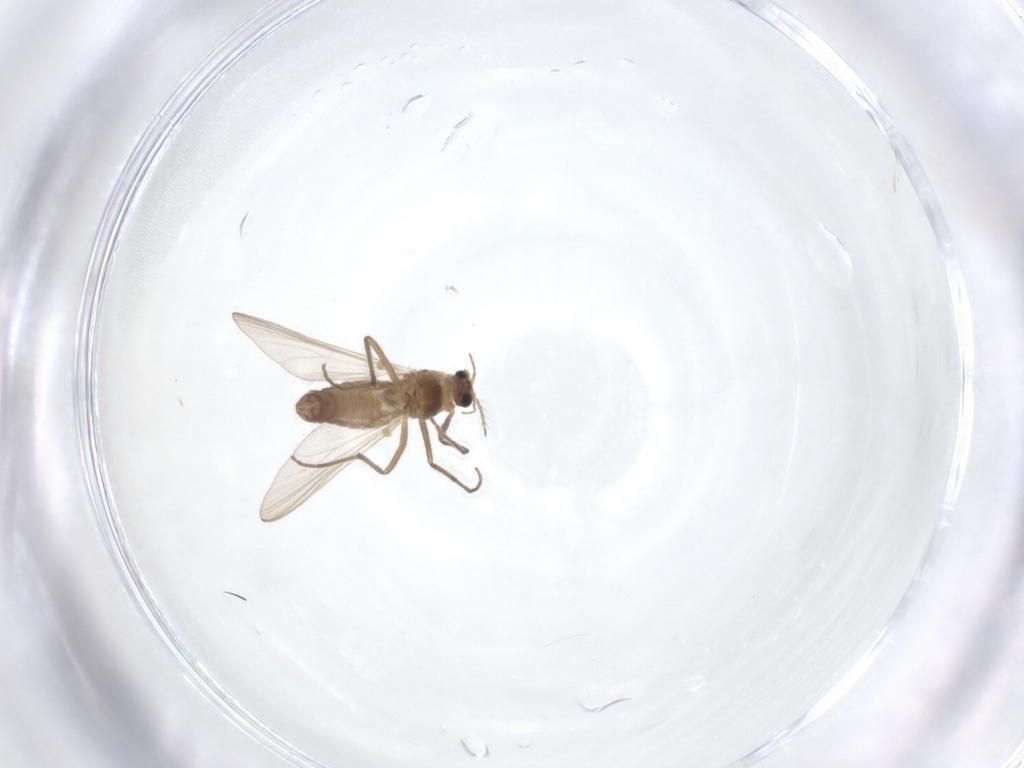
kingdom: Animalia
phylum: Arthropoda
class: Insecta
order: Diptera
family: Chironomidae
